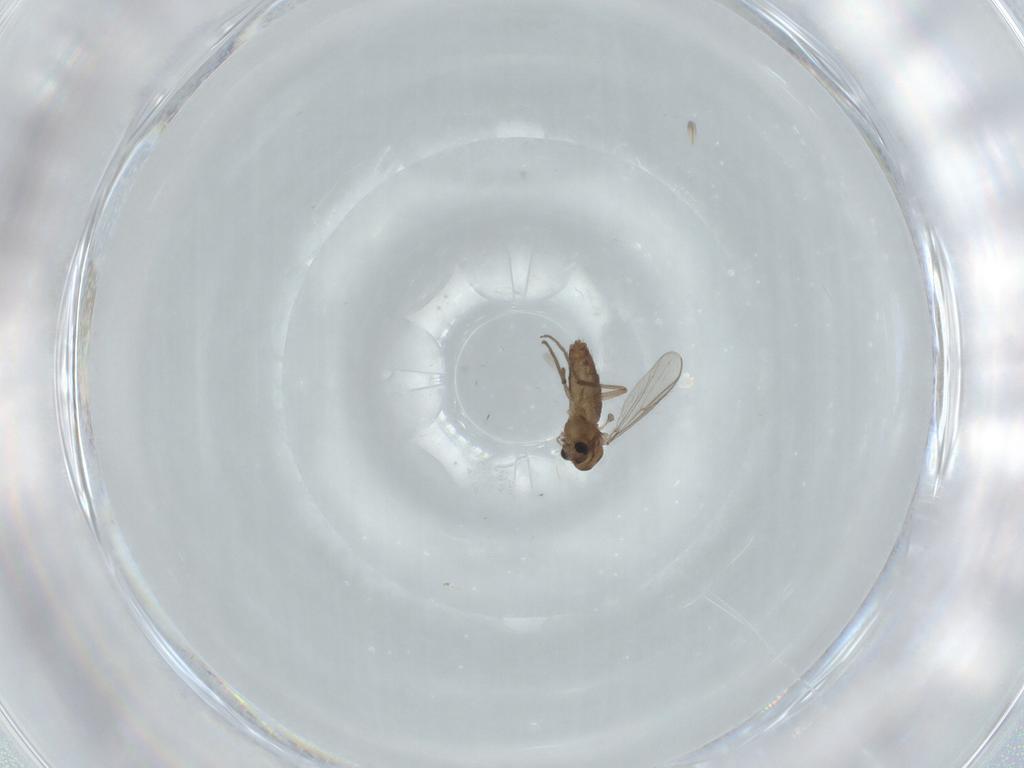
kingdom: Animalia
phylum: Arthropoda
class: Insecta
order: Diptera
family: Chironomidae
